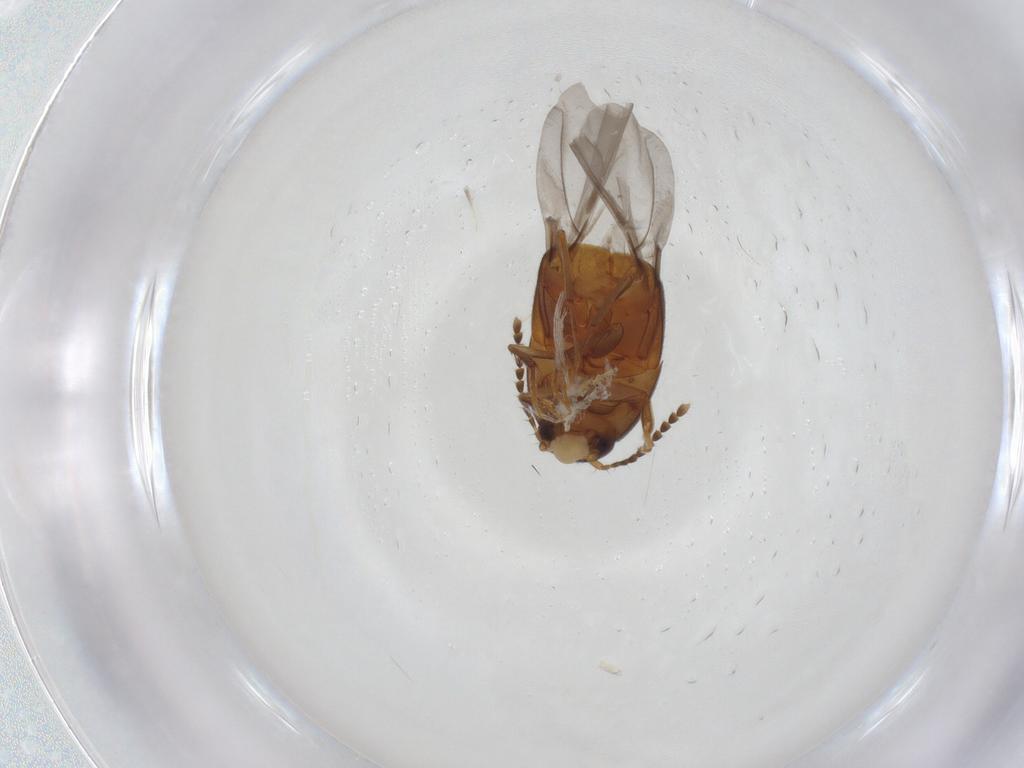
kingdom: Animalia
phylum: Arthropoda
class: Insecta
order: Coleoptera
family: Staphylinidae
